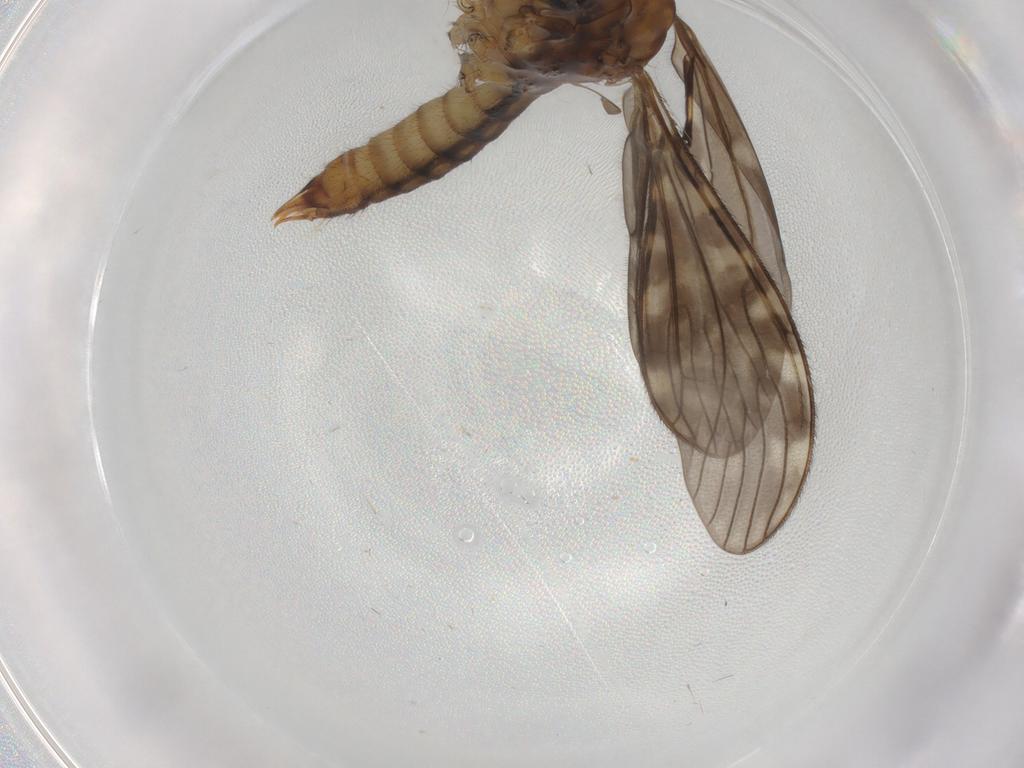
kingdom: Animalia
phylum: Arthropoda
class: Insecta
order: Diptera
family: Limoniidae
